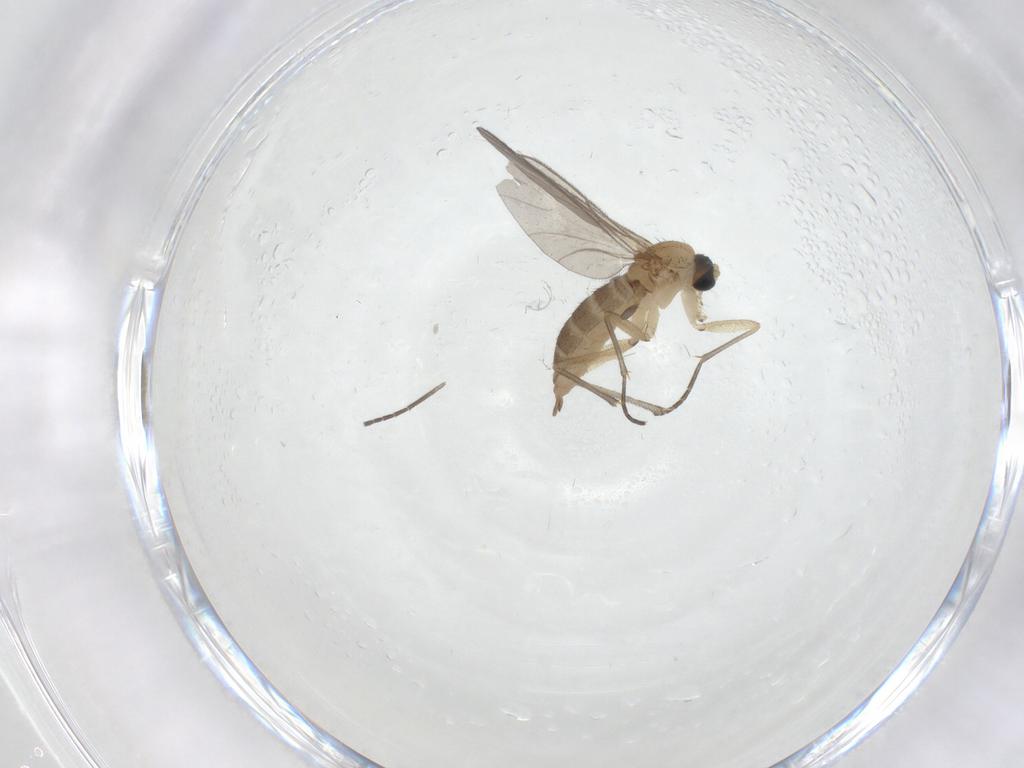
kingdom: Animalia
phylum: Arthropoda
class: Insecta
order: Diptera
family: Sciaridae
